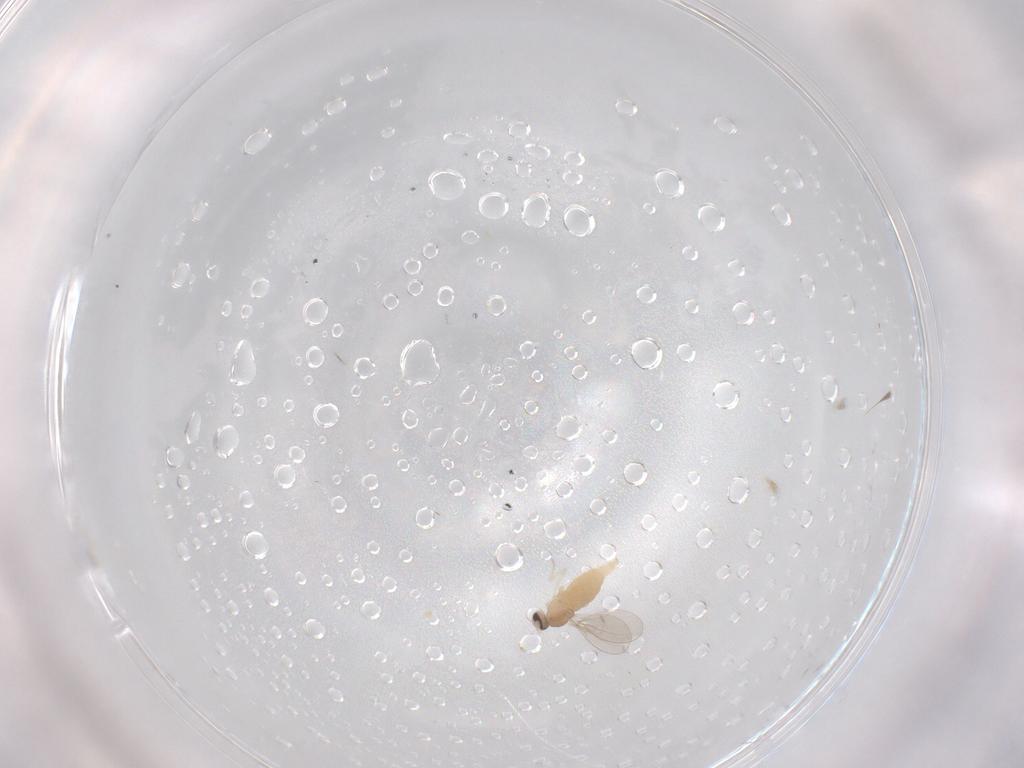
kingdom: Animalia
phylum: Arthropoda
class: Insecta
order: Diptera
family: Cecidomyiidae
